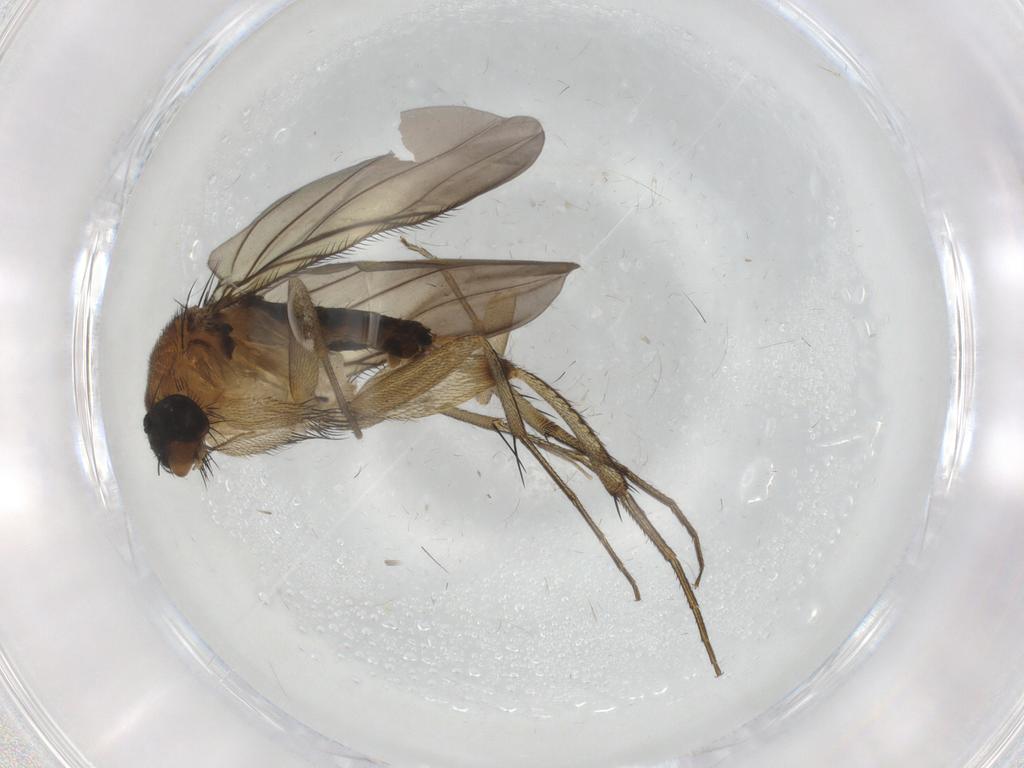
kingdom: Animalia
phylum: Arthropoda
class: Insecta
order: Diptera
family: Phoridae
